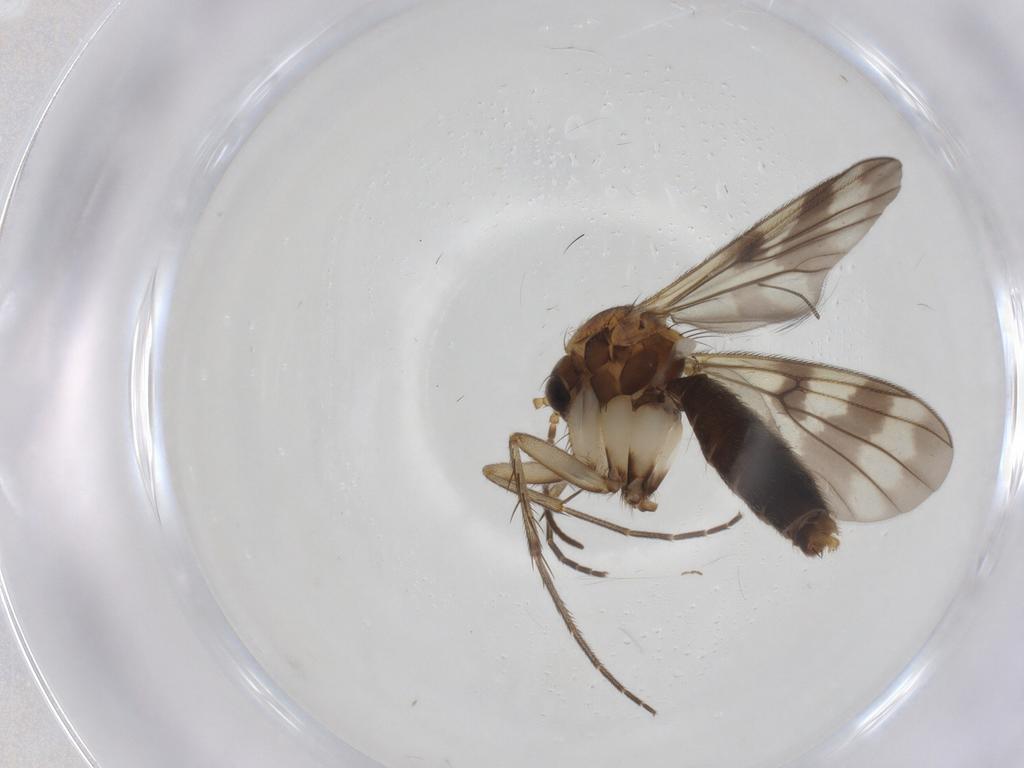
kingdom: Animalia
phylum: Arthropoda
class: Insecta
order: Diptera
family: Mycetophilidae
